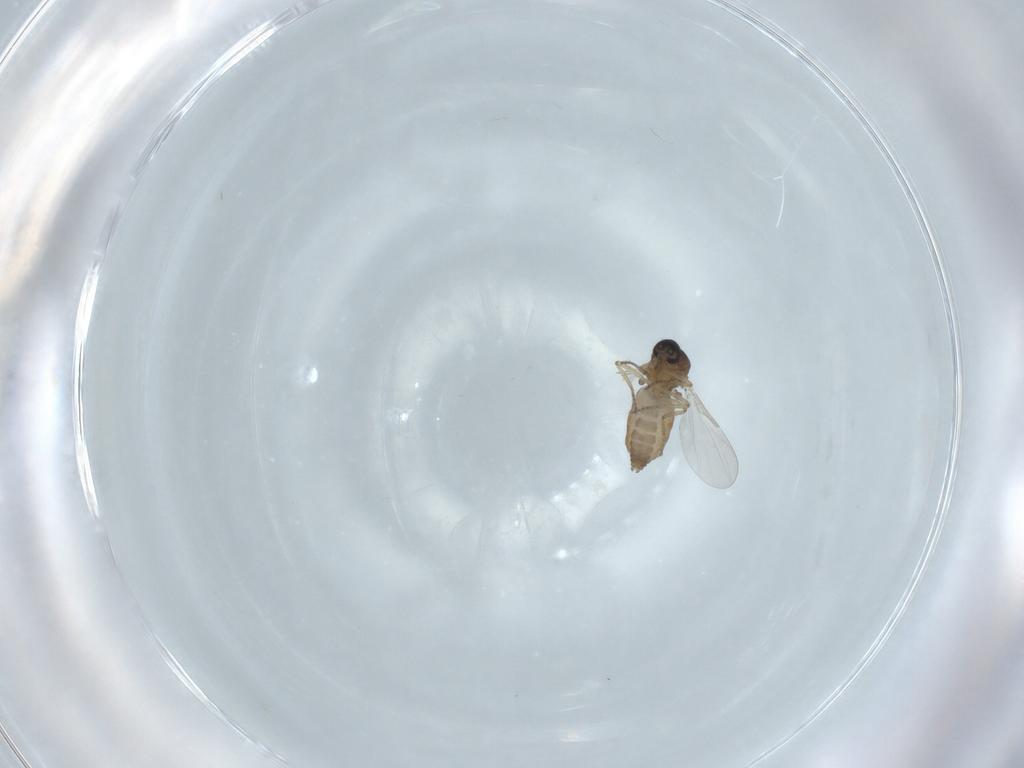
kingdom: Animalia
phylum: Arthropoda
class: Insecta
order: Diptera
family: Ceratopogonidae
